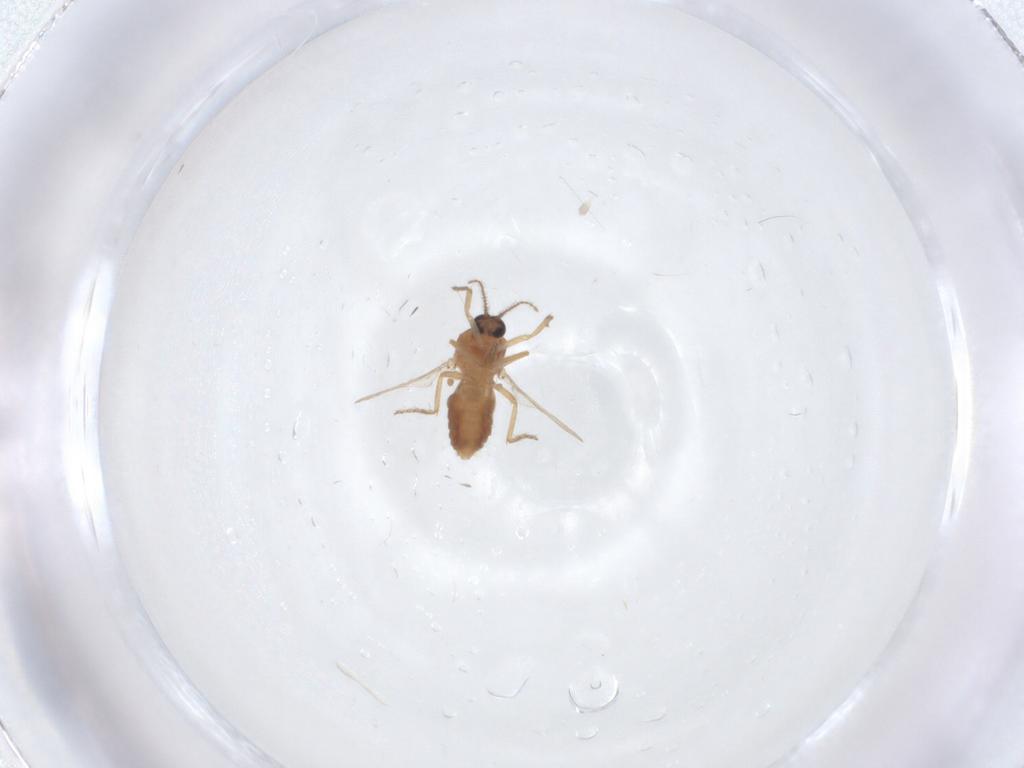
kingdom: Animalia
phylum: Arthropoda
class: Insecta
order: Diptera
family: Ceratopogonidae
